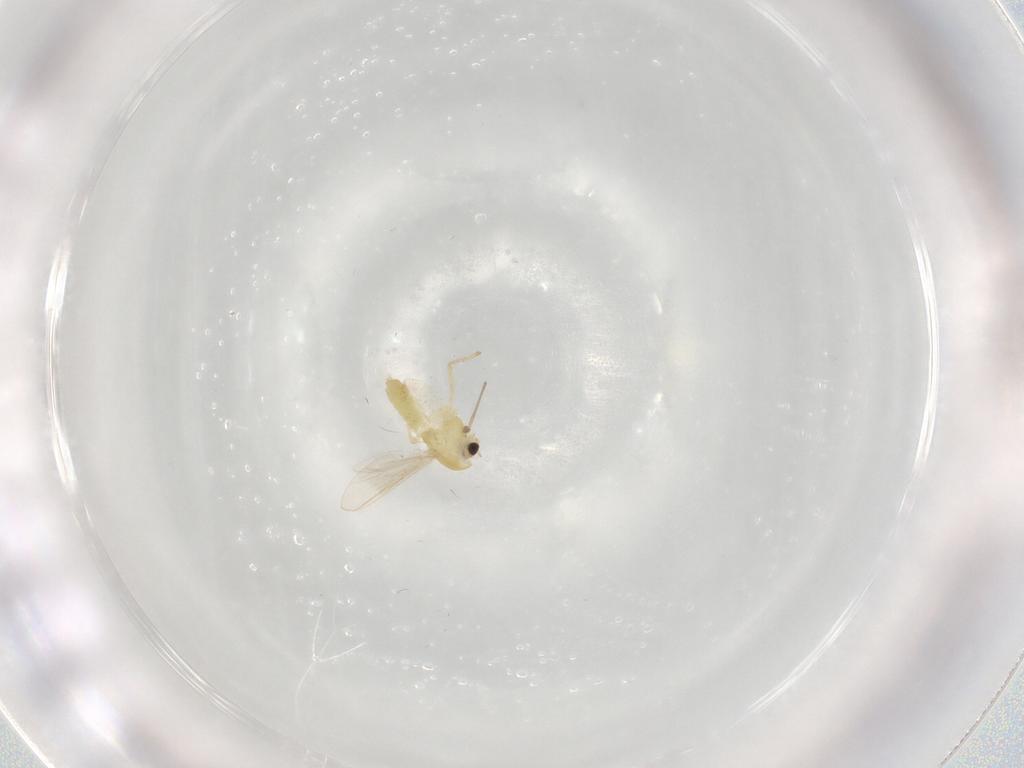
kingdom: Animalia
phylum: Arthropoda
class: Insecta
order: Diptera
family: Chironomidae
